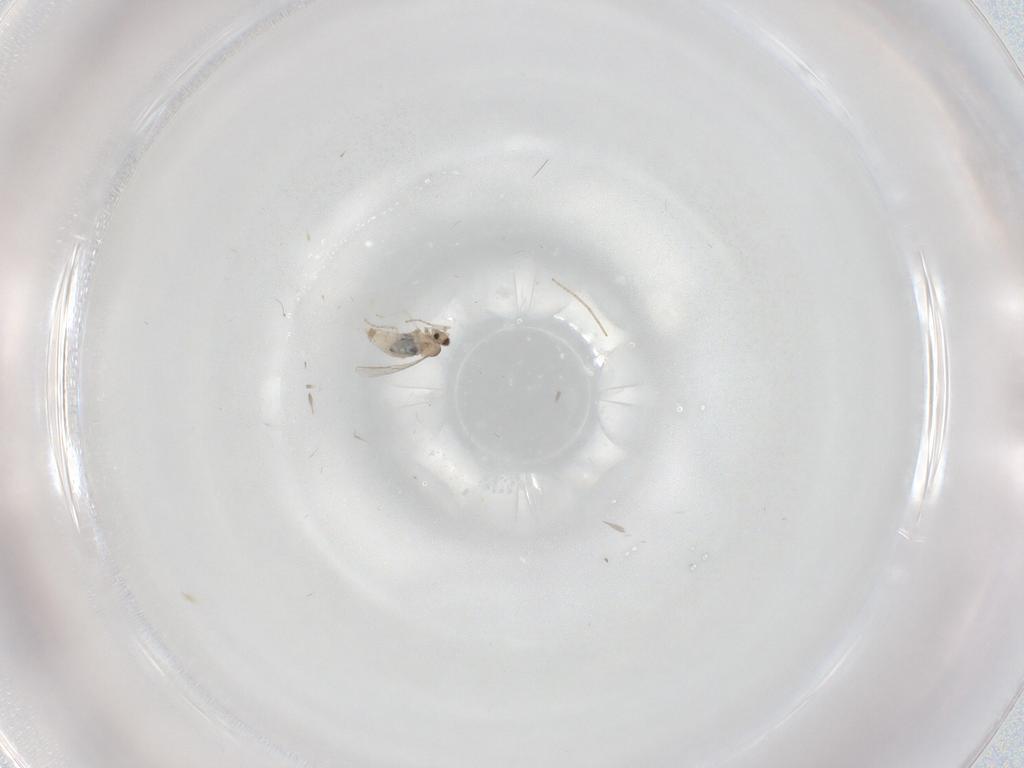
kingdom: Animalia
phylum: Arthropoda
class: Insecta
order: Diptera
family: Cecidomyiidae
